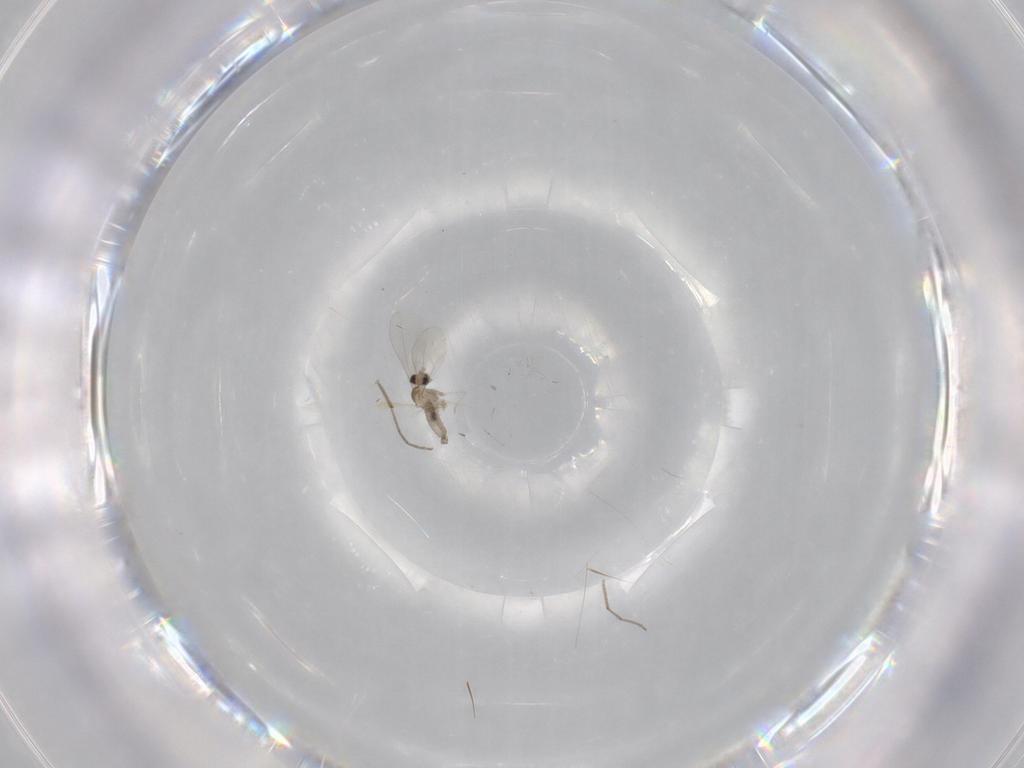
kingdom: Animalia
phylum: Arthropoda
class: Insecta
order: Diptera
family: Cecidomyiidae
